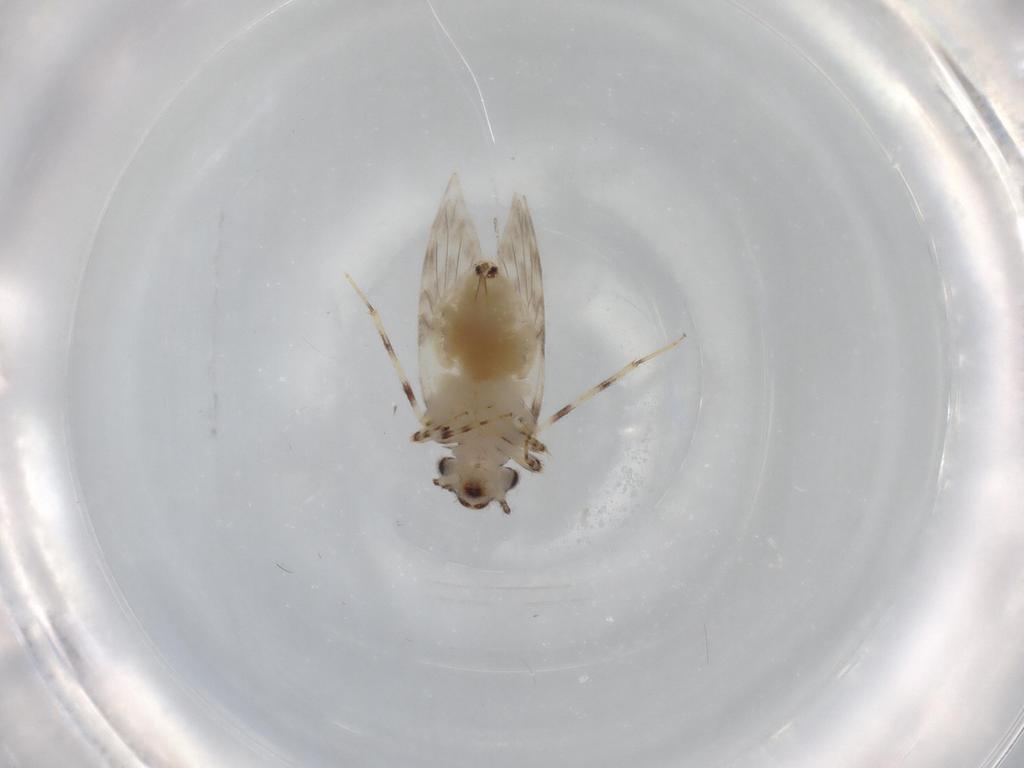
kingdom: Animalia
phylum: Arthropoda
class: Insecta
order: Psocodea
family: Lepidopsocidae
